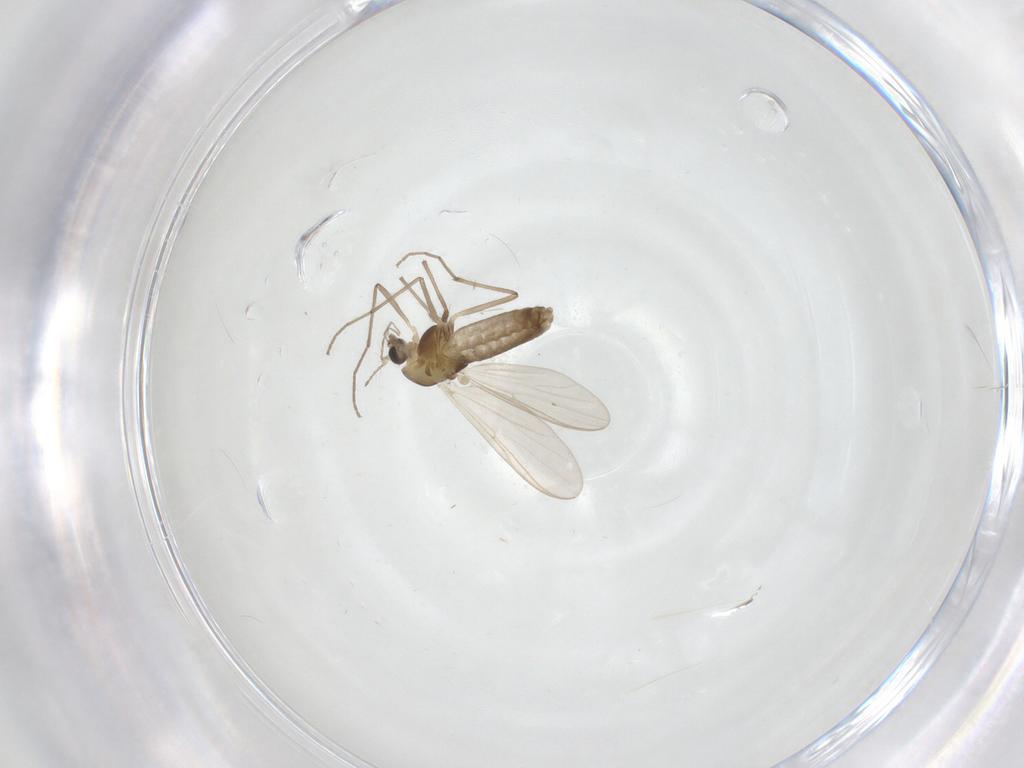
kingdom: Animalia
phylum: Arthropoda
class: Insecta
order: Diptera
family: Chironomidae
